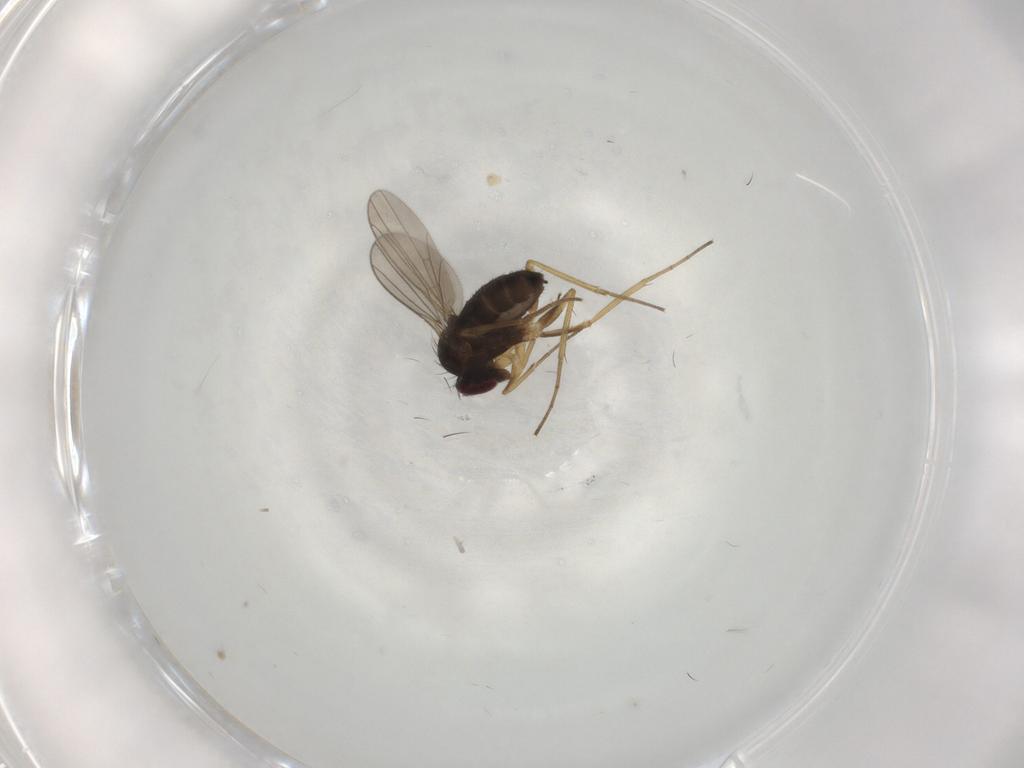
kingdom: Animalia
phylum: Arthropoda
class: Insecta
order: Diptera
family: Dolichopodidae
